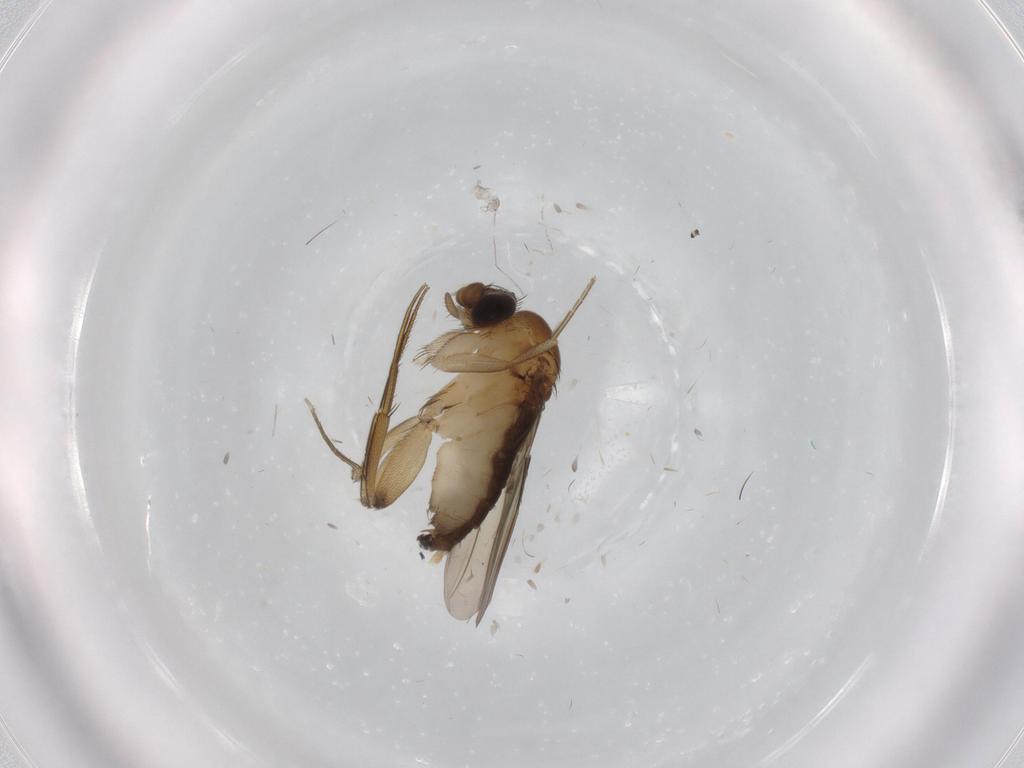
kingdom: Animalia
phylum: Arthropoda
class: Insecta
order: Diptera
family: Phoridae
